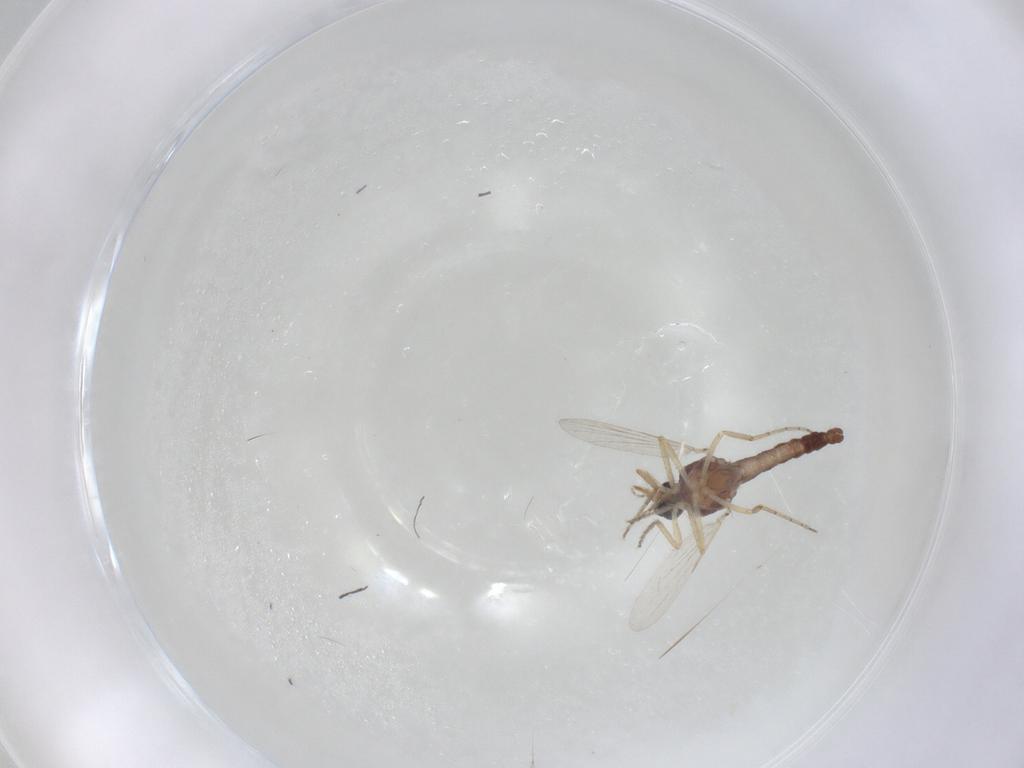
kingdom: Animalia
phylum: Arthropoda
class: Insecta
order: Diptera
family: Ceratopogonidae
